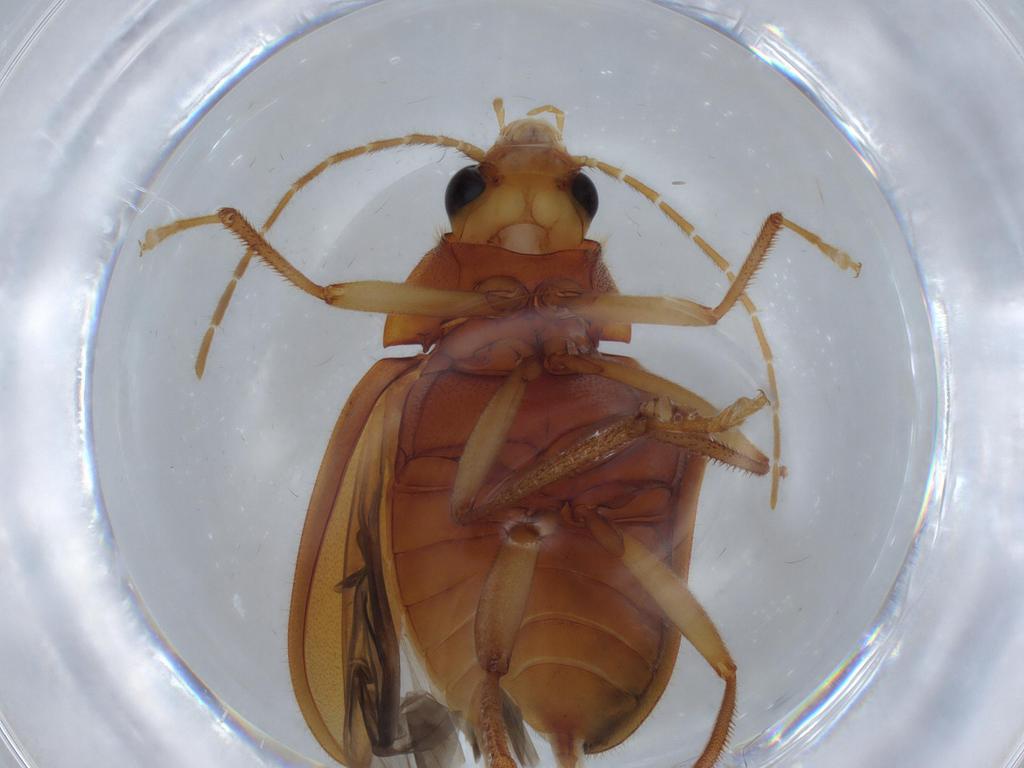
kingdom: Animalia
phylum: Arthropoda
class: Insecta
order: Coleoptera
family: Ptilodactylidae
